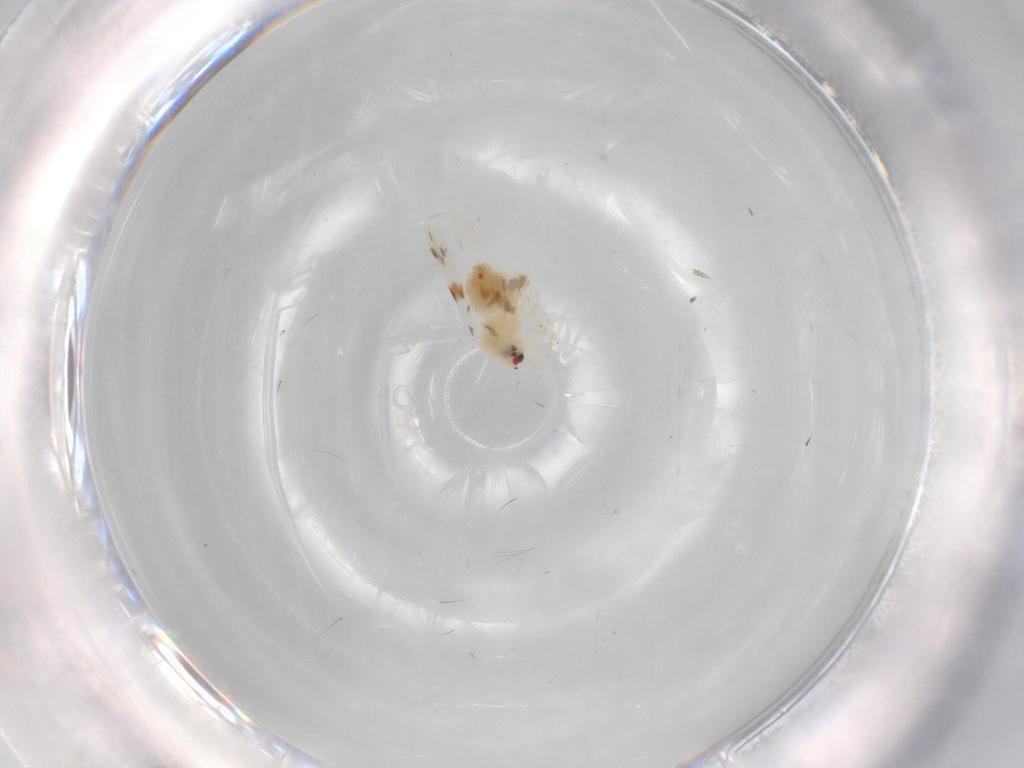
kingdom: Animalia
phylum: Arthropoda
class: Insecta
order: Hemiptera
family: Aleyrodidae
